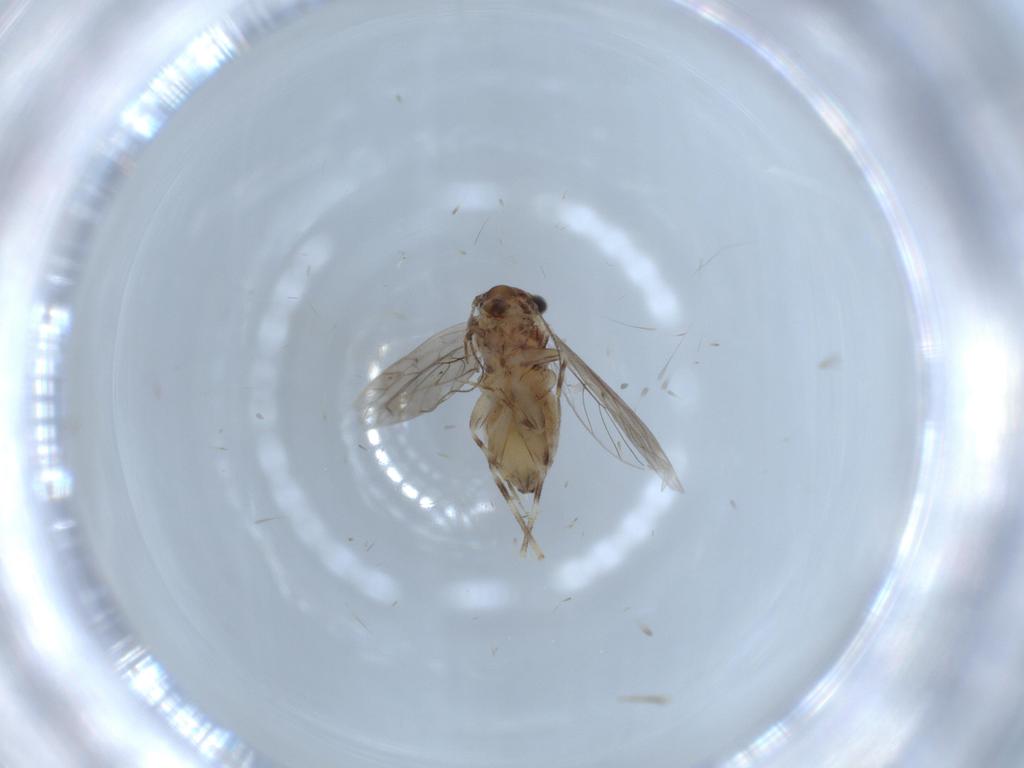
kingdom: Animalia
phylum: Arthropoda
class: Insecta
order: Psocodea
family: Lepidopsocidae
